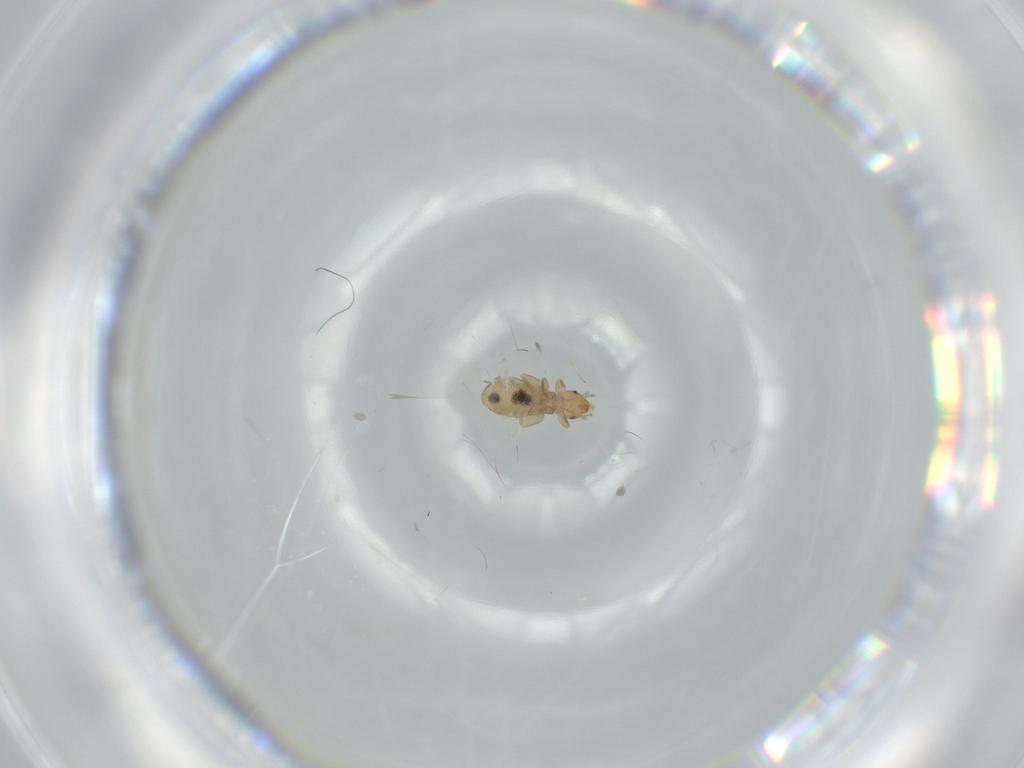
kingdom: Animalia
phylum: Arthropoda
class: Insecta
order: Psocodea
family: Liposcelididae
